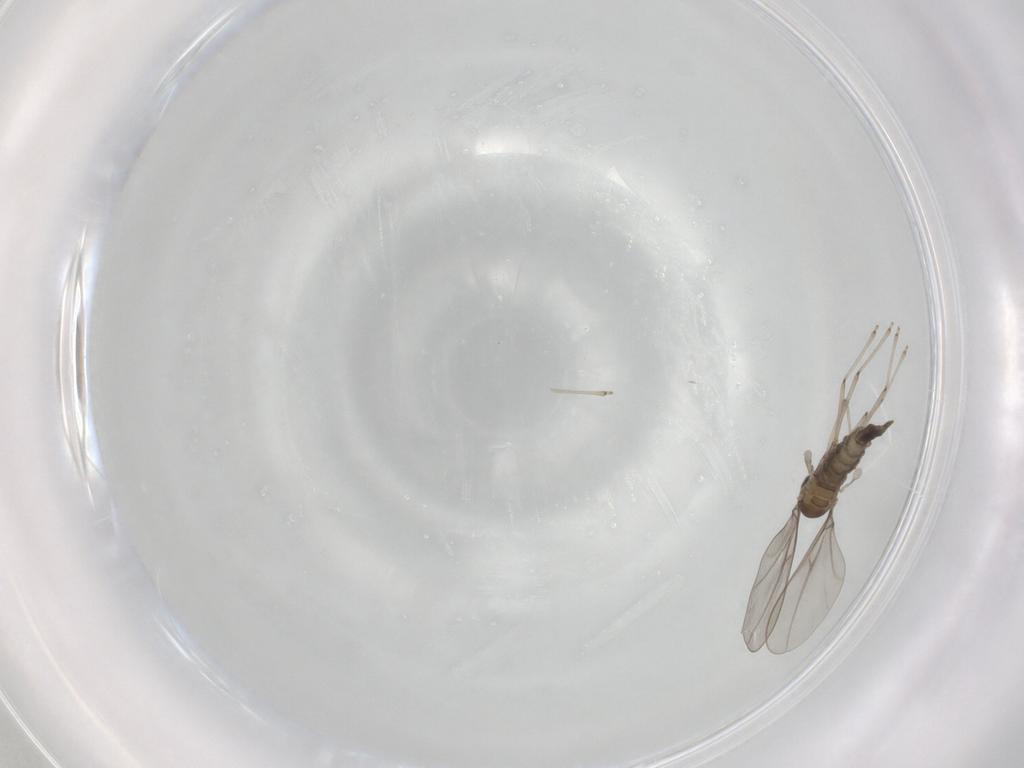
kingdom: Animalia
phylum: Arthropoda
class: Insecta
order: Diptera
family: Cecidomyiidae
